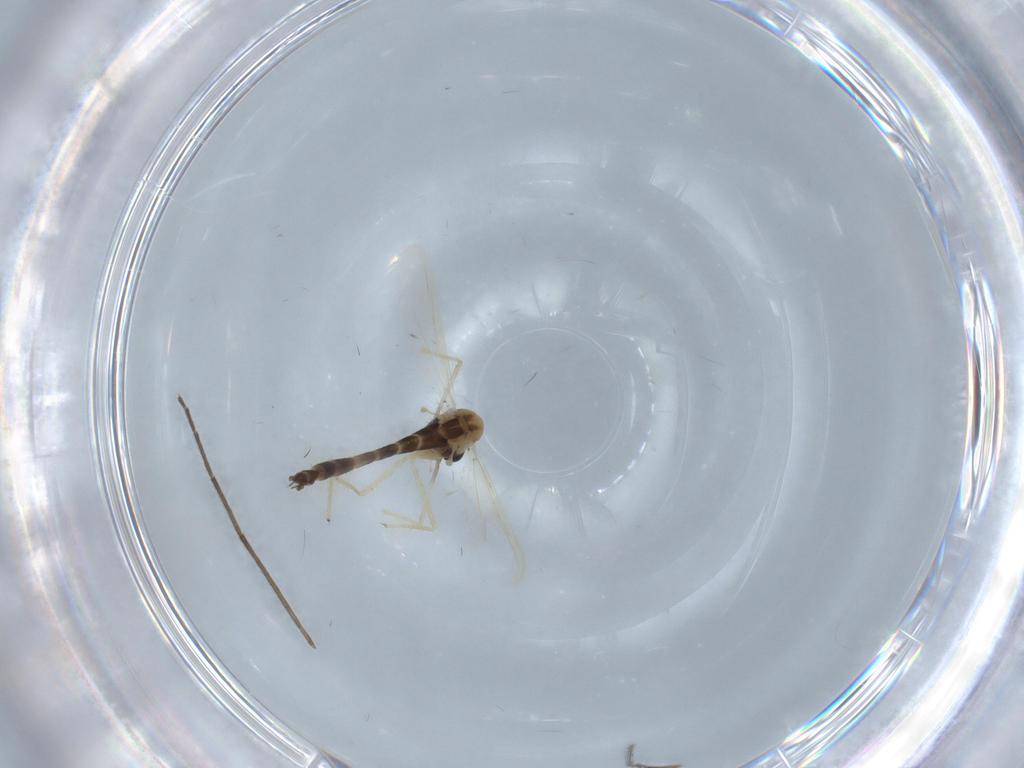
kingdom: Animalia
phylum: Arthropoda
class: Insecta
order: Diptera
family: Chironomidae
